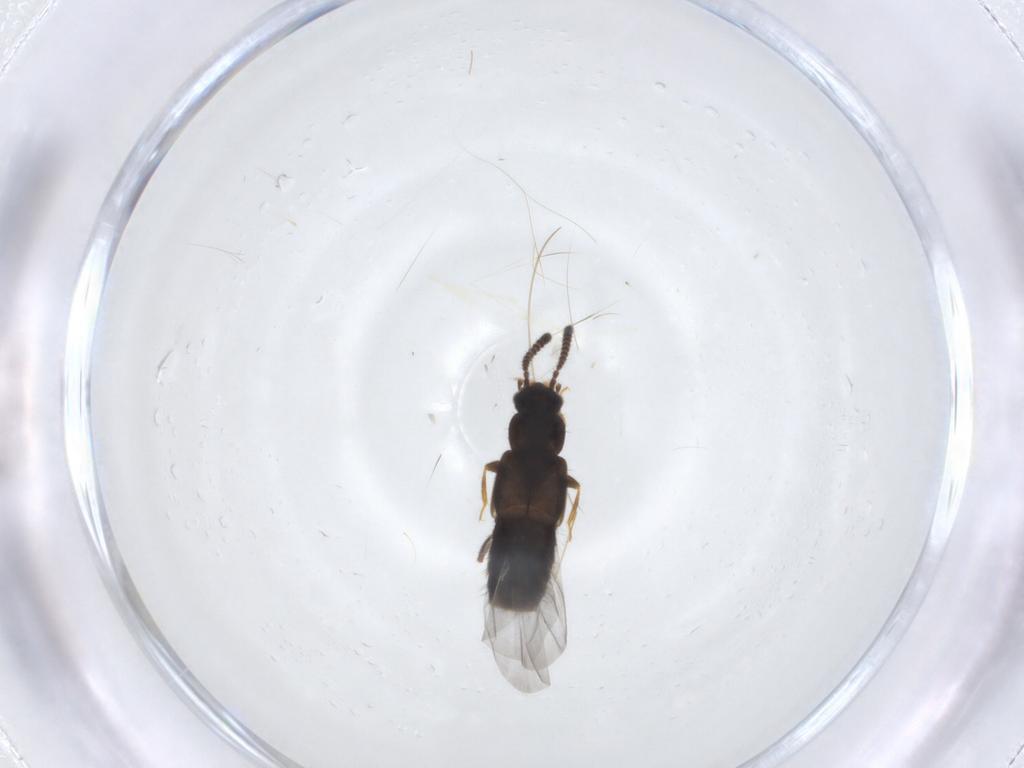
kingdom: Animalia
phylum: Arthropoda
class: Insecta
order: Coleoptera
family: Staphylinidae
